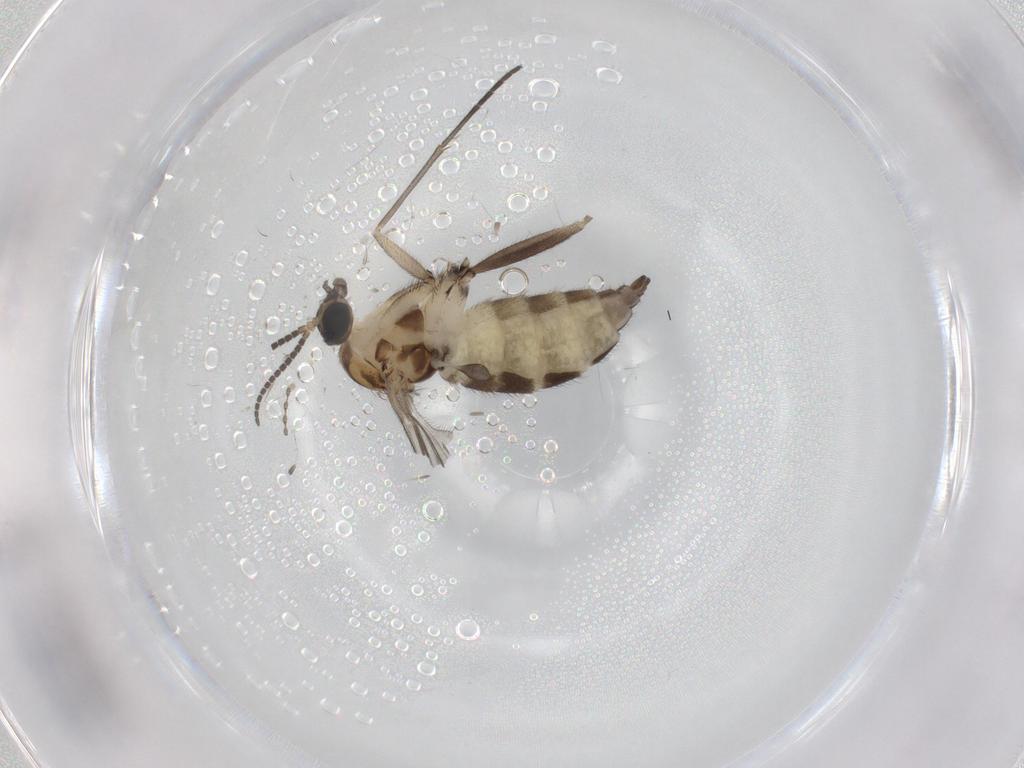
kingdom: Animalia
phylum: Arthropoda
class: Insecta
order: Diptera
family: Sciaridae
